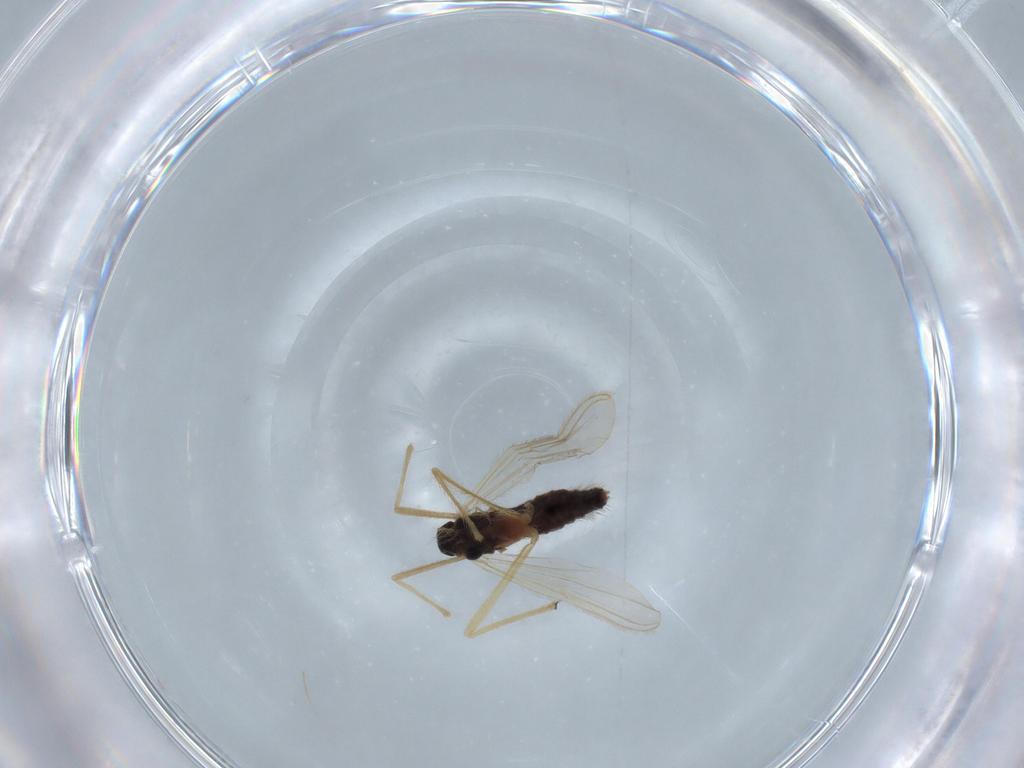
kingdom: Animalia
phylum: Arthropoda
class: Insecta
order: Diptera
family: Chironomidae
